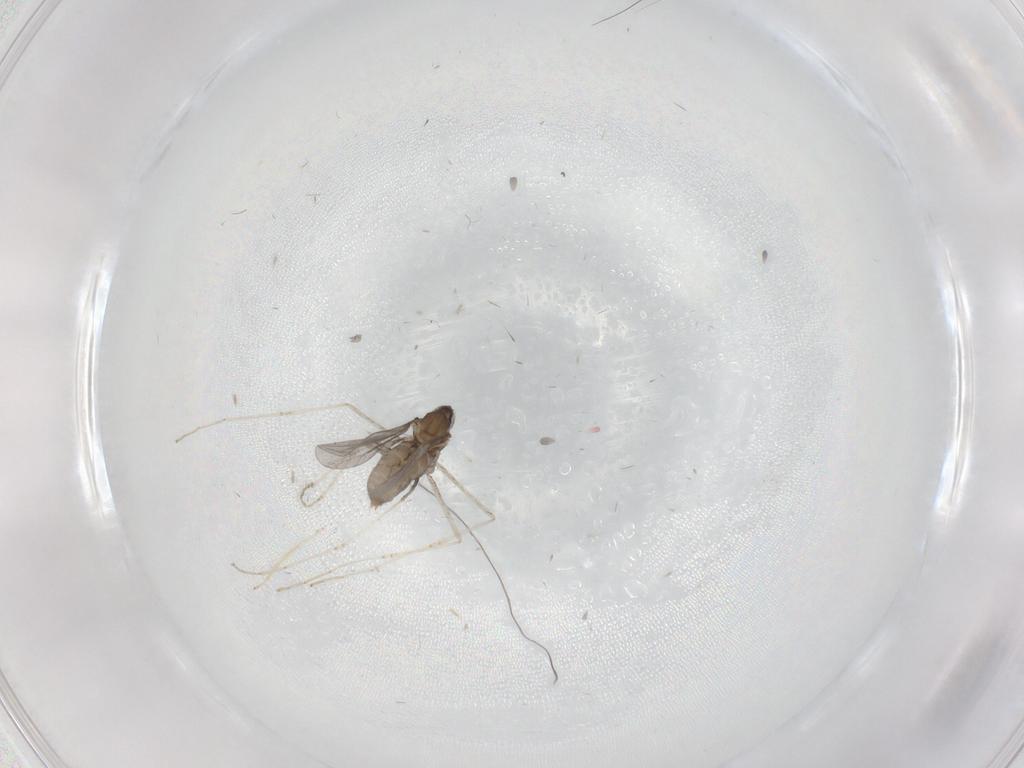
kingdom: Animalia
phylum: Arthropoda
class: Insecta
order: Diptera
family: Cecidomyiidae
